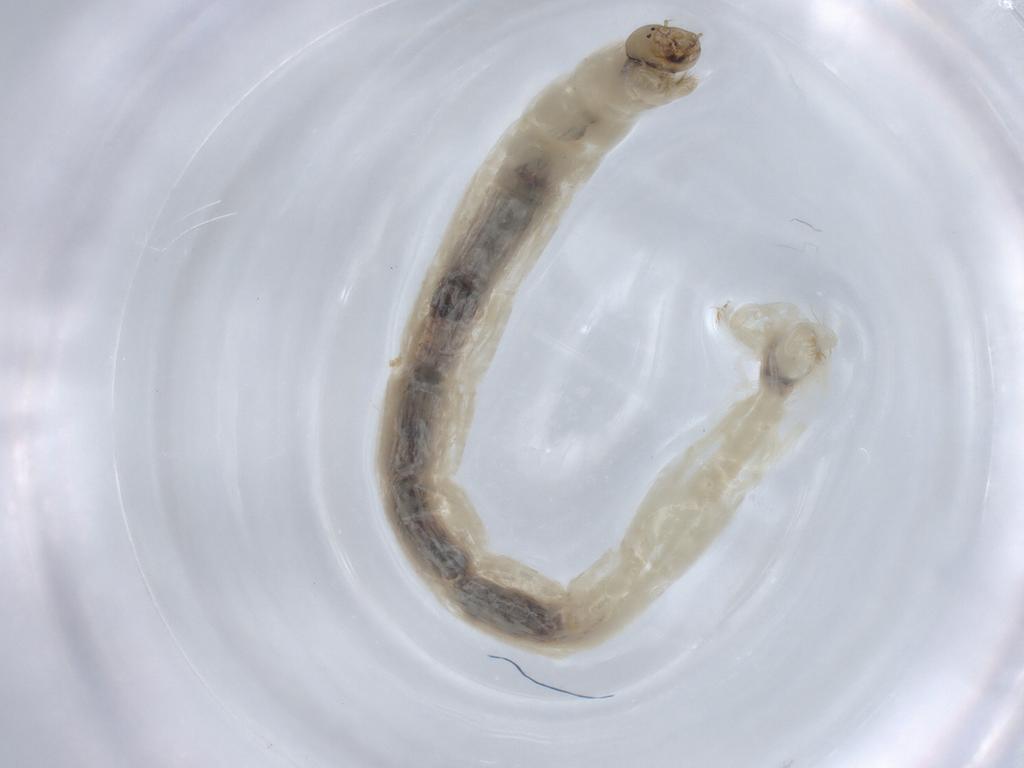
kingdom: Animalia
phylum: Arthropoda
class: Insecta
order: Diptera
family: Chironomidae
